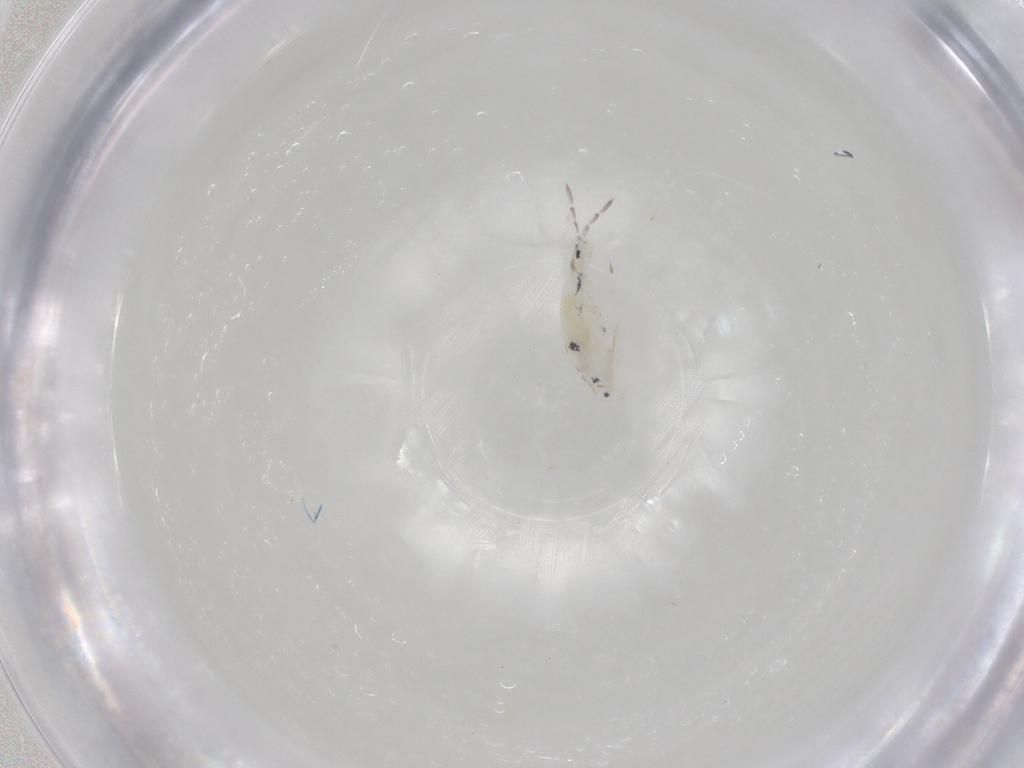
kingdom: Animalia
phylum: Arthropoda
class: Collembola
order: Entomobryomorpha
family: Entomobryidae
